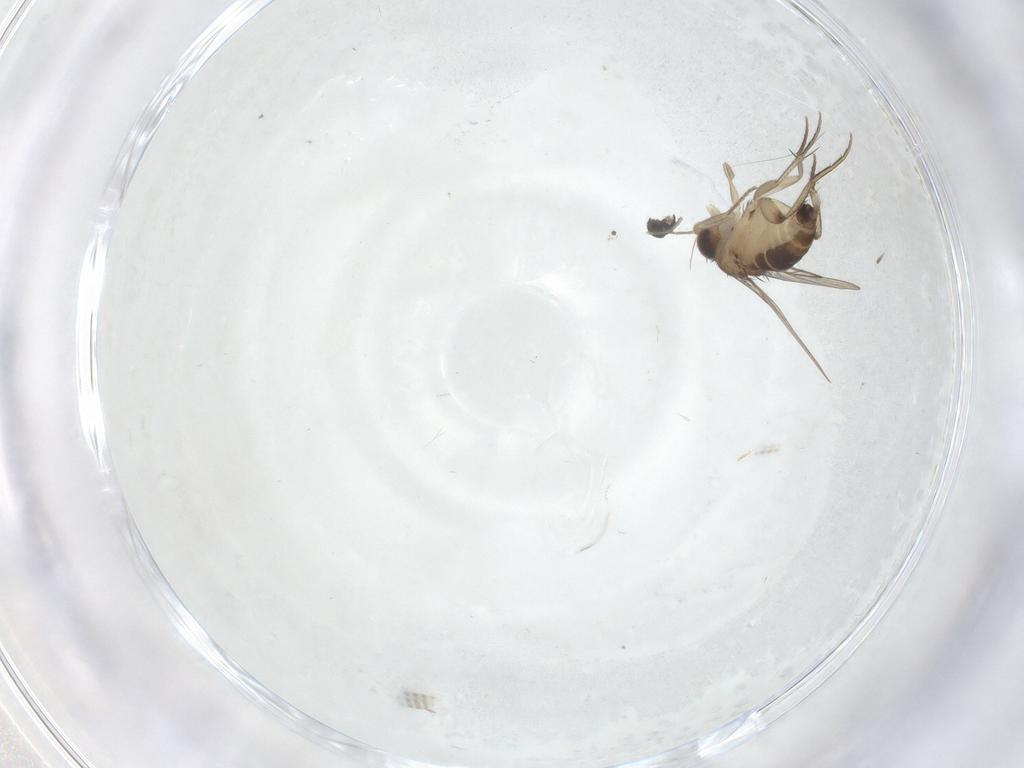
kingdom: Animalia
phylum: Arthropoda
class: Insecta
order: Diptera
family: Phoridae
